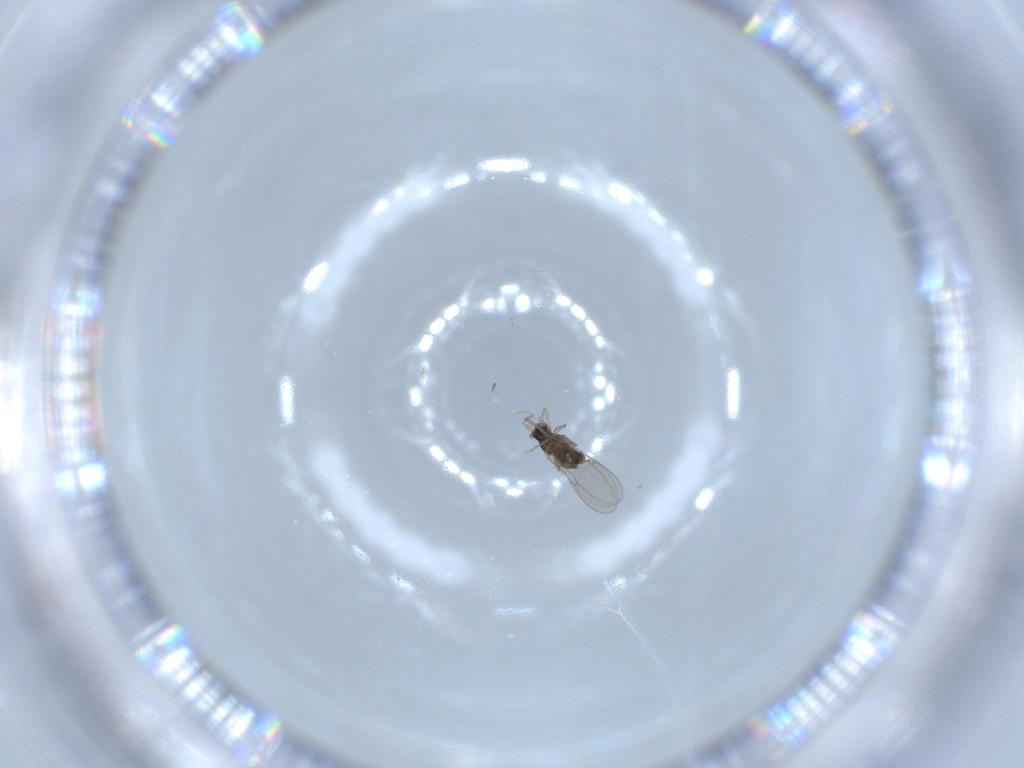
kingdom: Animalia
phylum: Arthropoda
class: Insecta
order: Diptera
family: Cecidomyiidae
